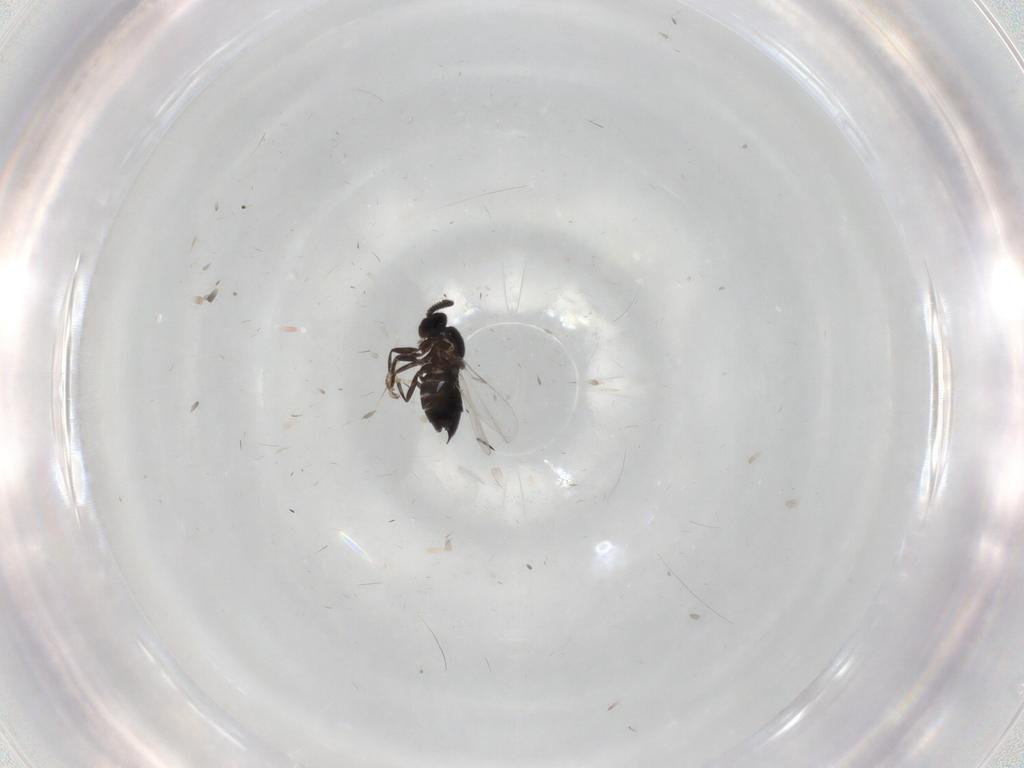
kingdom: Animalia
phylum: Arthropoda
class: Insecta
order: Diptera
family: Scatopsidae
